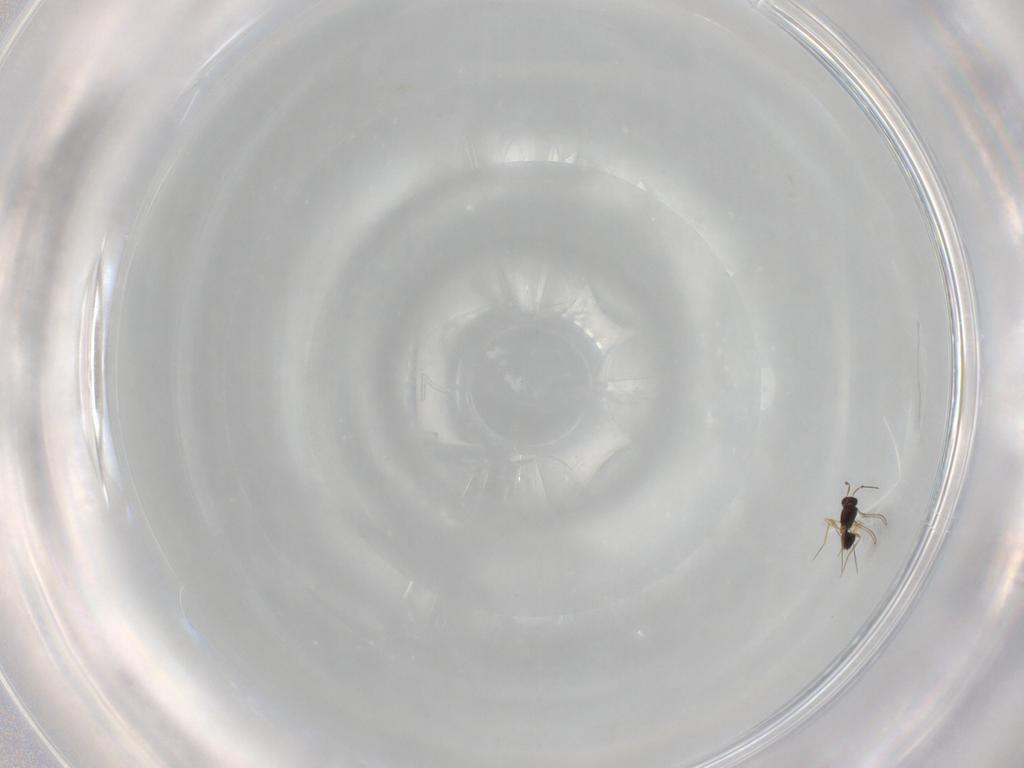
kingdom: Animalia
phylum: Arthropoda
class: Insecta
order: Hymenoptera
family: Mymaridae
